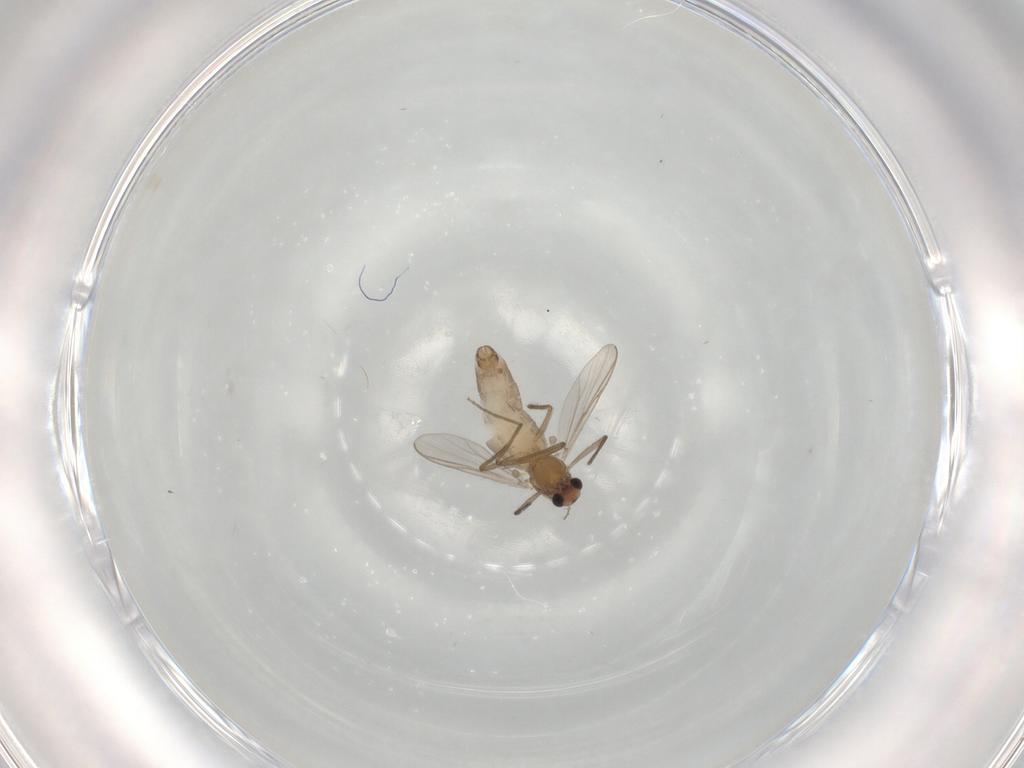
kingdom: Animalia
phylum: Arthropoda
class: Insecta
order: Diptera
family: Chironomidae
